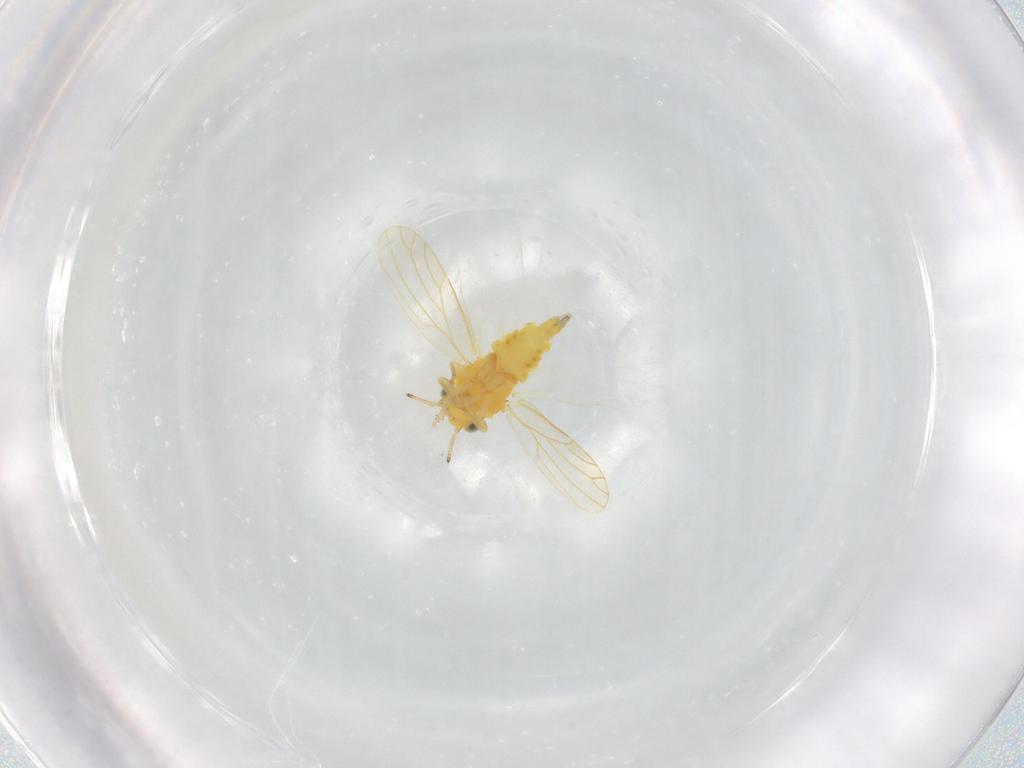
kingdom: Animalia
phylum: Arthropoda
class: Insecta
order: Hemiptera
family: Aphalaridae
